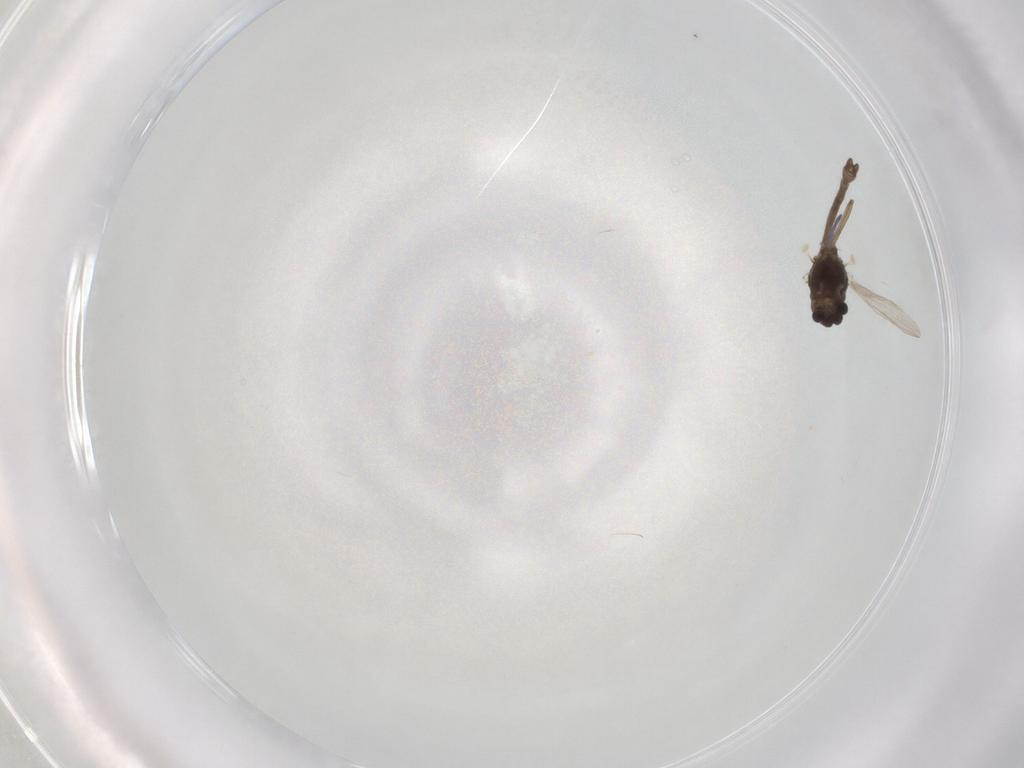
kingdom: Animalia
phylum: Arthropoda
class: Insecta
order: Diptera
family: Chironomidae
